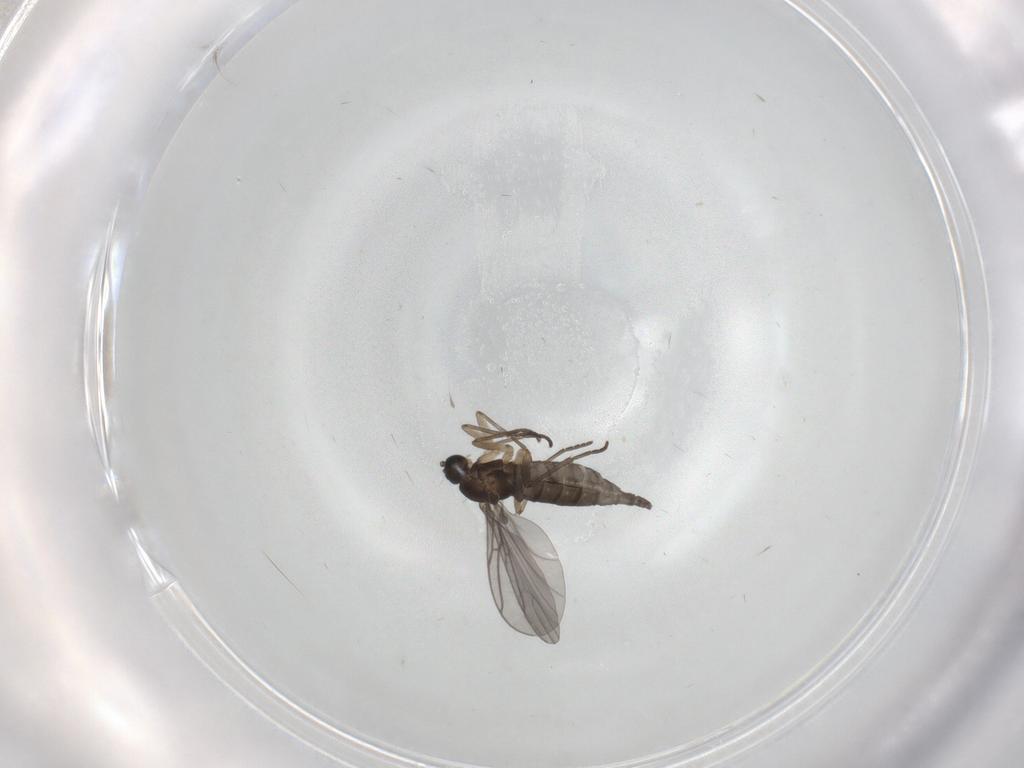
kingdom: Animalia
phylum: Arthropoda
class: Insecta
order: Diptera
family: Sciaridae
